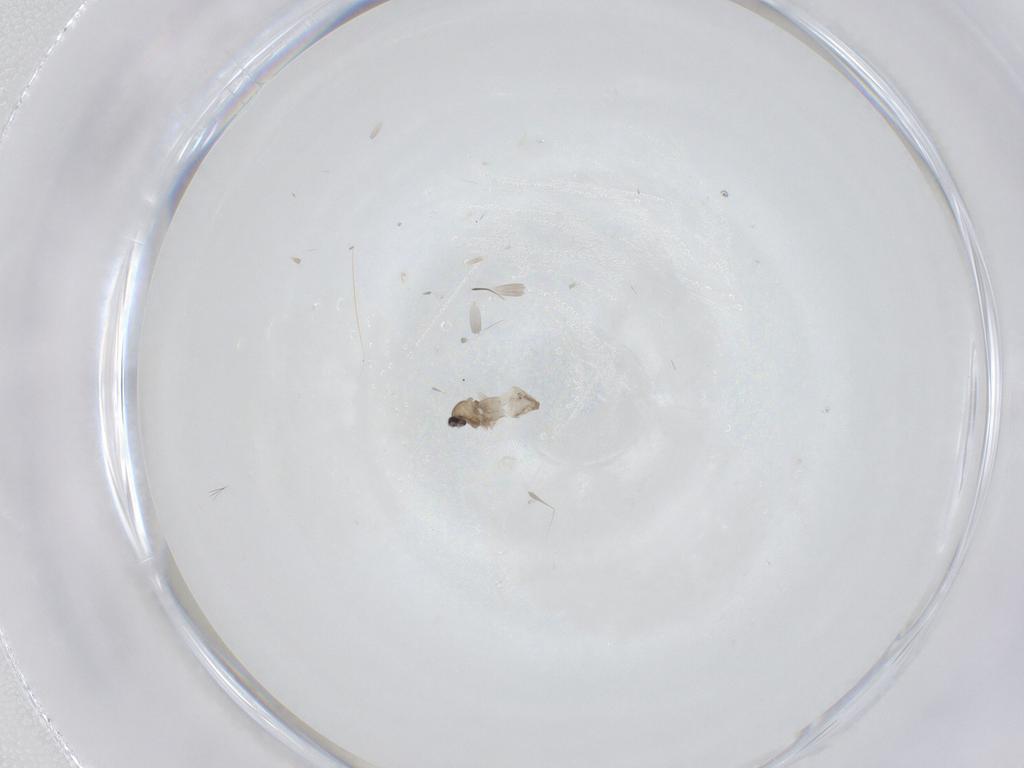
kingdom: Animalia
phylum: Arthropoda
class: Insecta
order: Diptera
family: Cecidomyiidae
